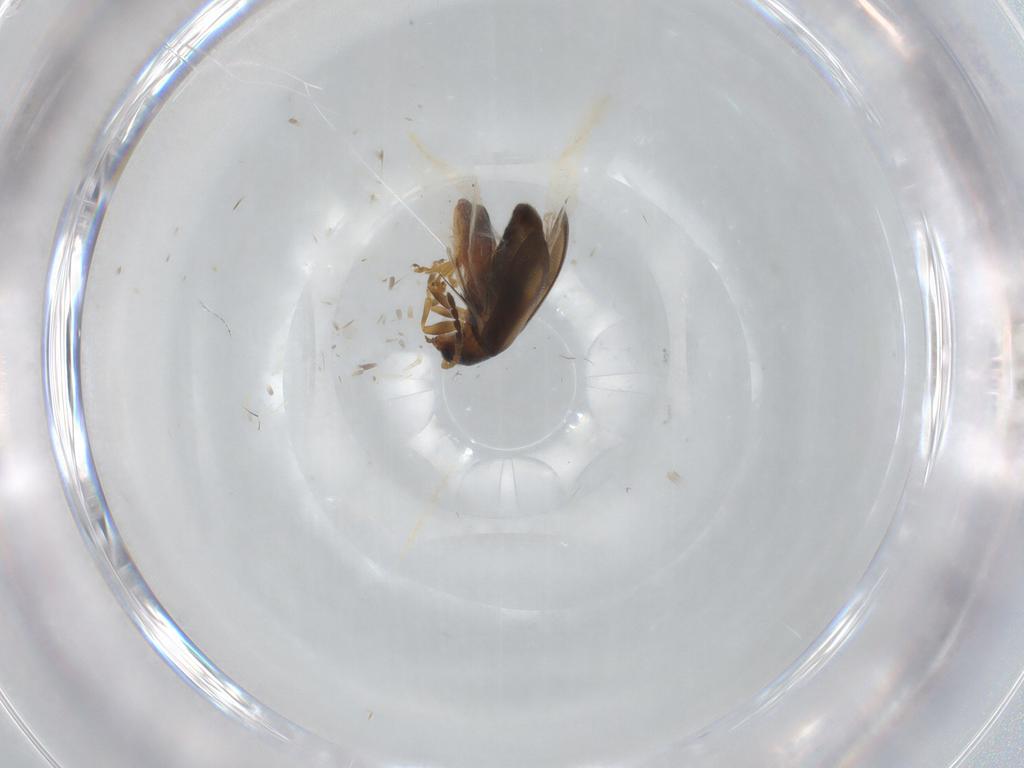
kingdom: Animalia
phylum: Arthropoda
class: Insecta
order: Coleoptera
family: Chrysomelidae
